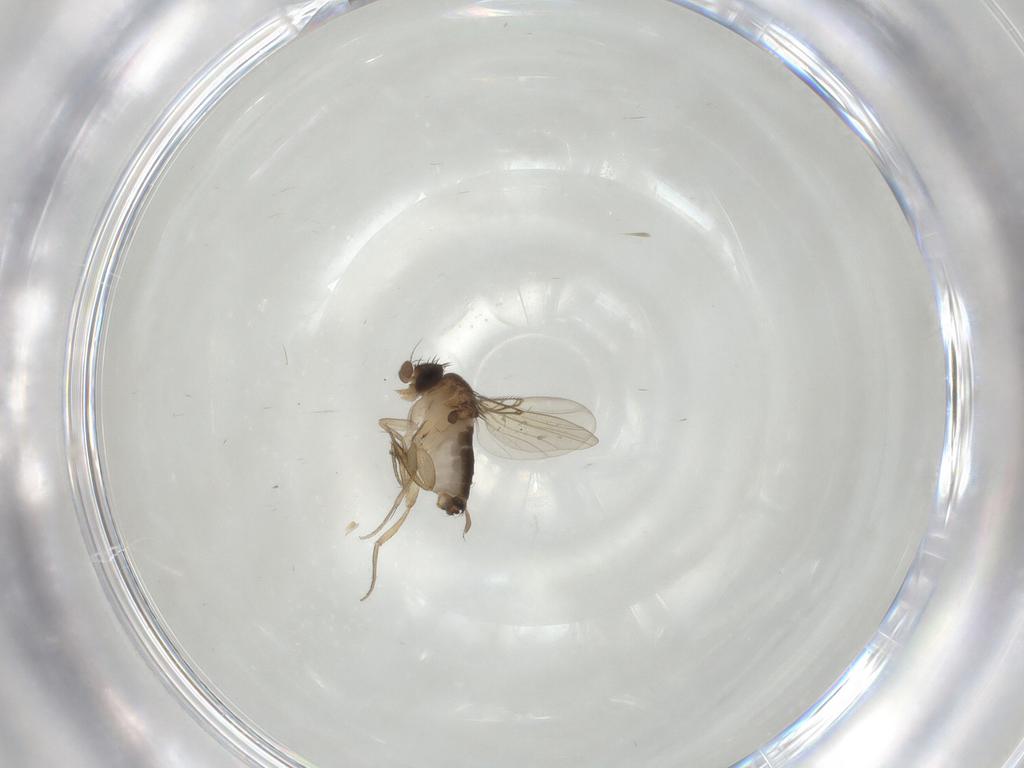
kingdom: Animalia
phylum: Arthropoda
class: Insecta
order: Diptera
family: Phoridae
